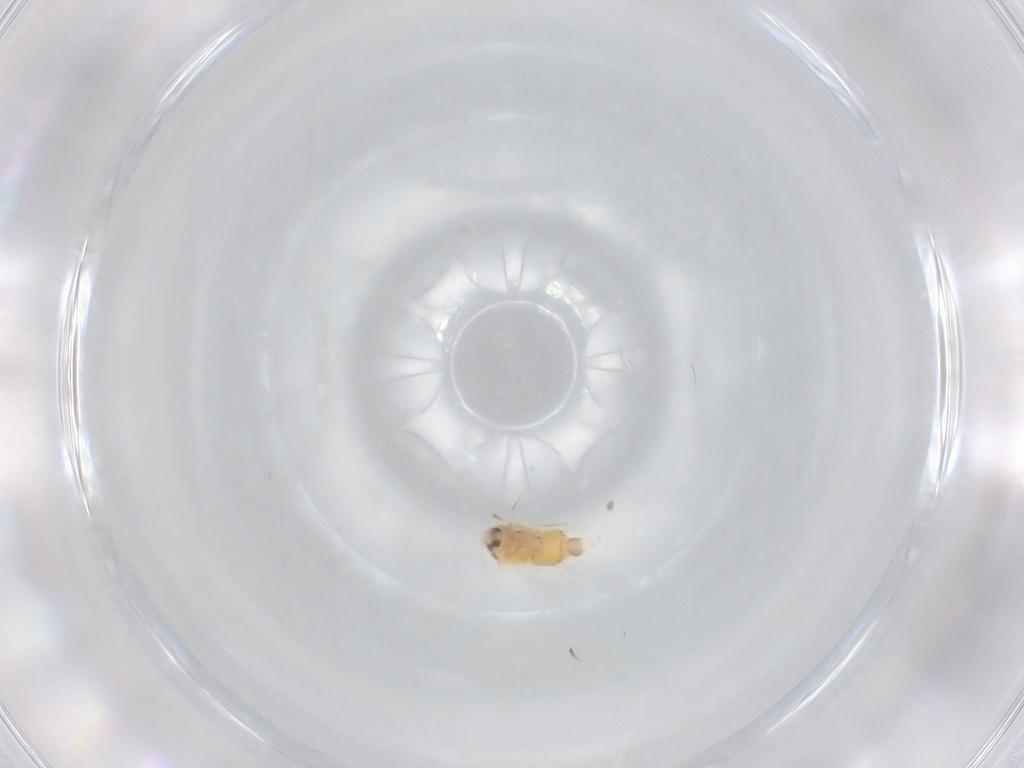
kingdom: Animalia
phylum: Arthropoda
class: Insecta
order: Hemiptera
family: Aleyrodidae
